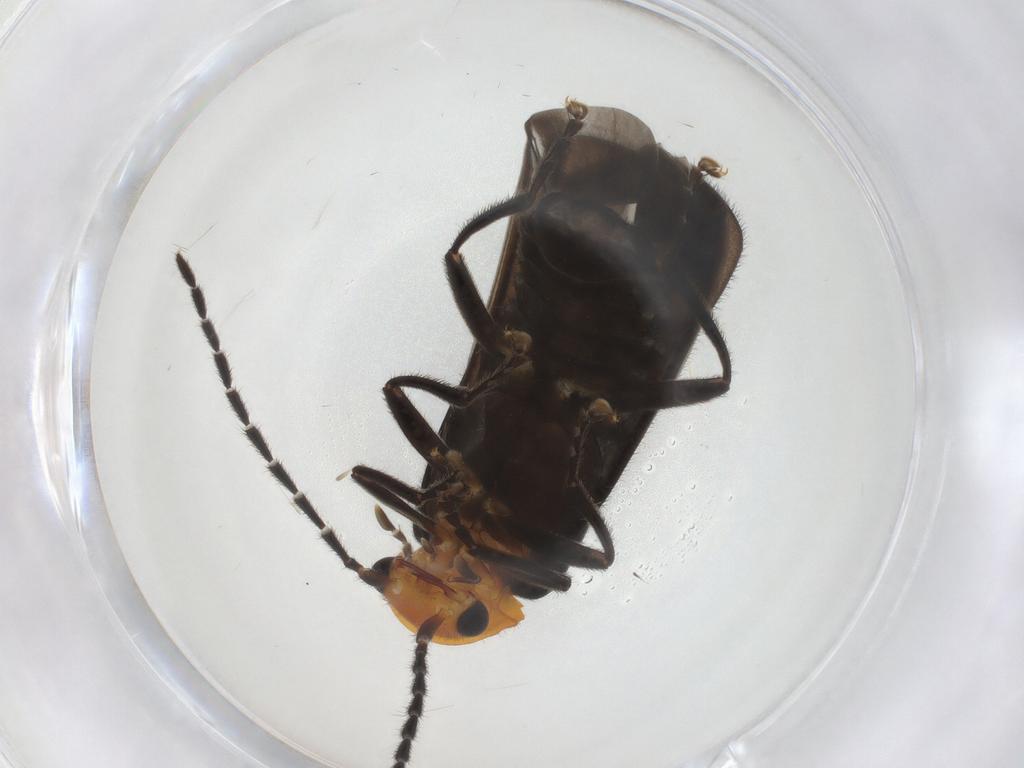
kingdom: Animalia
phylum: Arthropoda
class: Insecta
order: Coleoptera
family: Cantharidae
